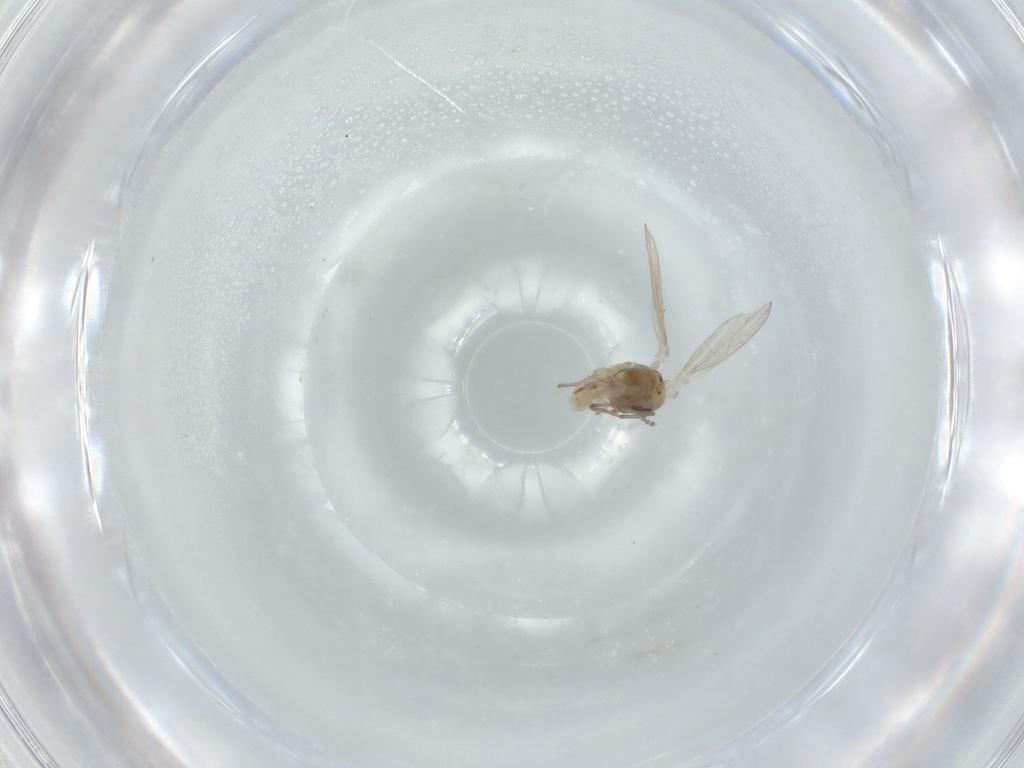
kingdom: Animalia
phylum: Arthropoda
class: Insecta
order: Diptera
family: Psychodidae
